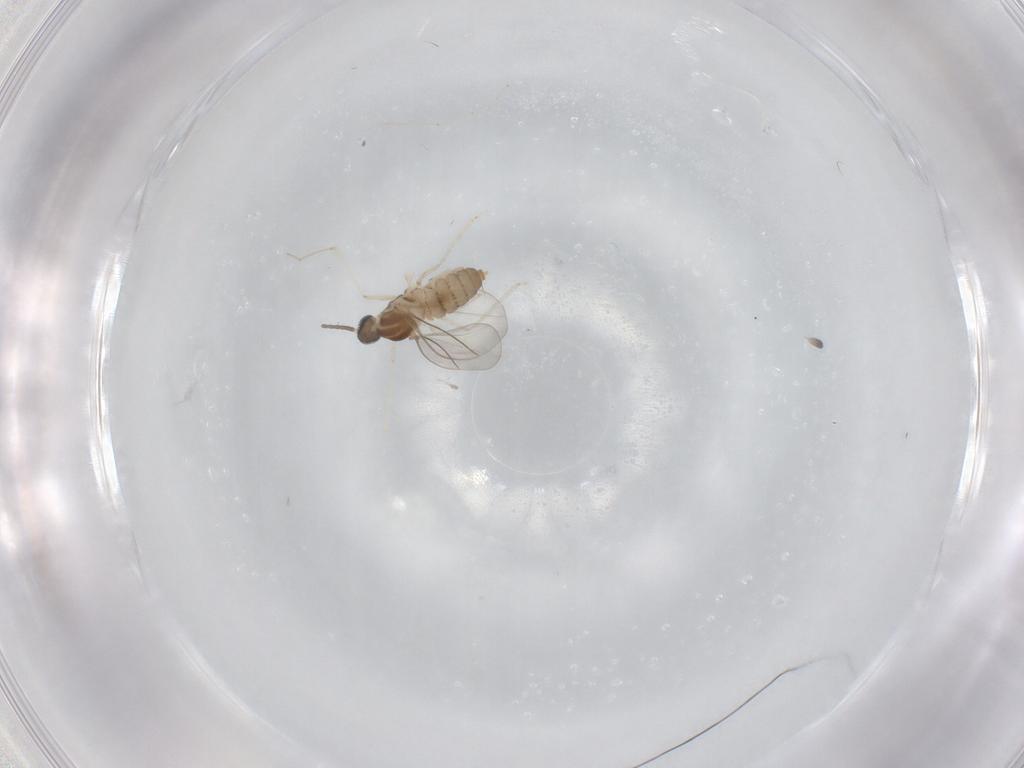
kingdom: Animalia
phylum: Arthropoda
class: Insecta
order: Diptera
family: Cecidomyiidae
